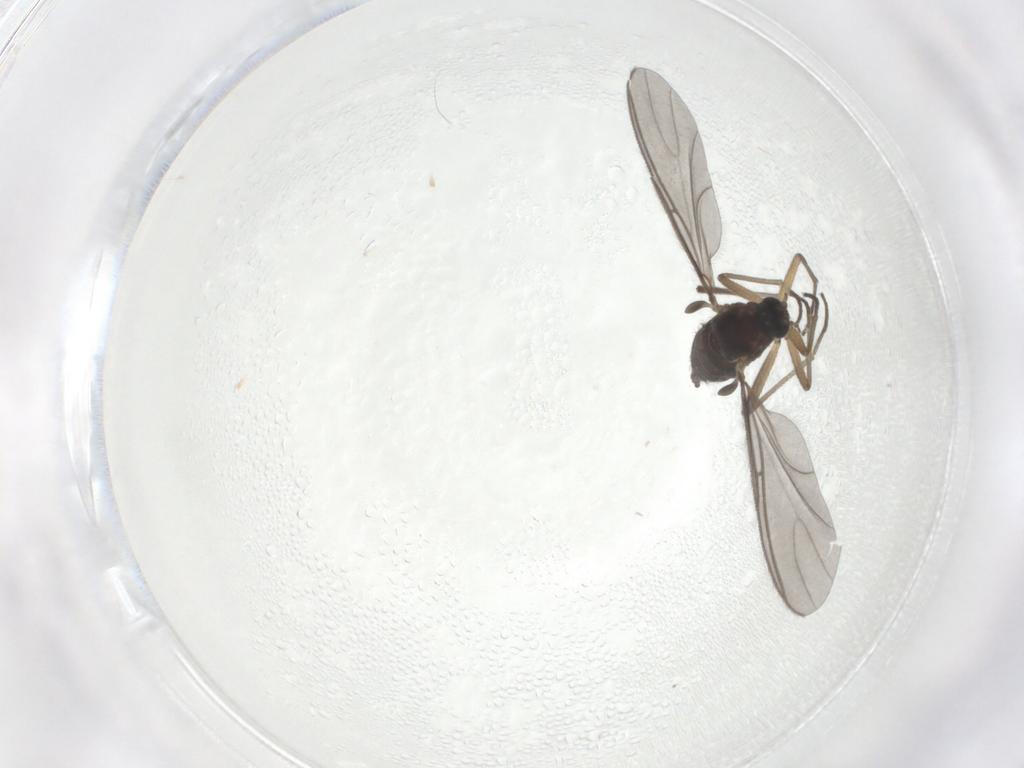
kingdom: Animalia
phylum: Arthropoda
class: Insecta
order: Diptera
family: Sciaridae
